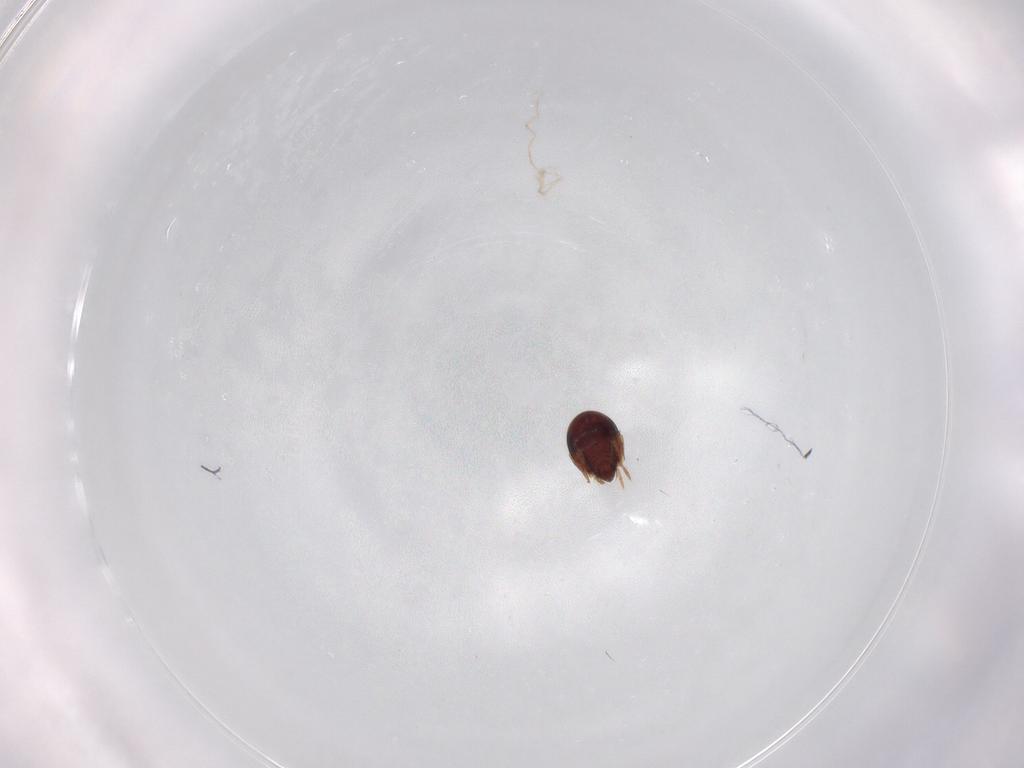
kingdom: Animalia
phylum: Arthropoda
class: Arachnida
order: Sarcoptiformes
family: Humerobatidae
